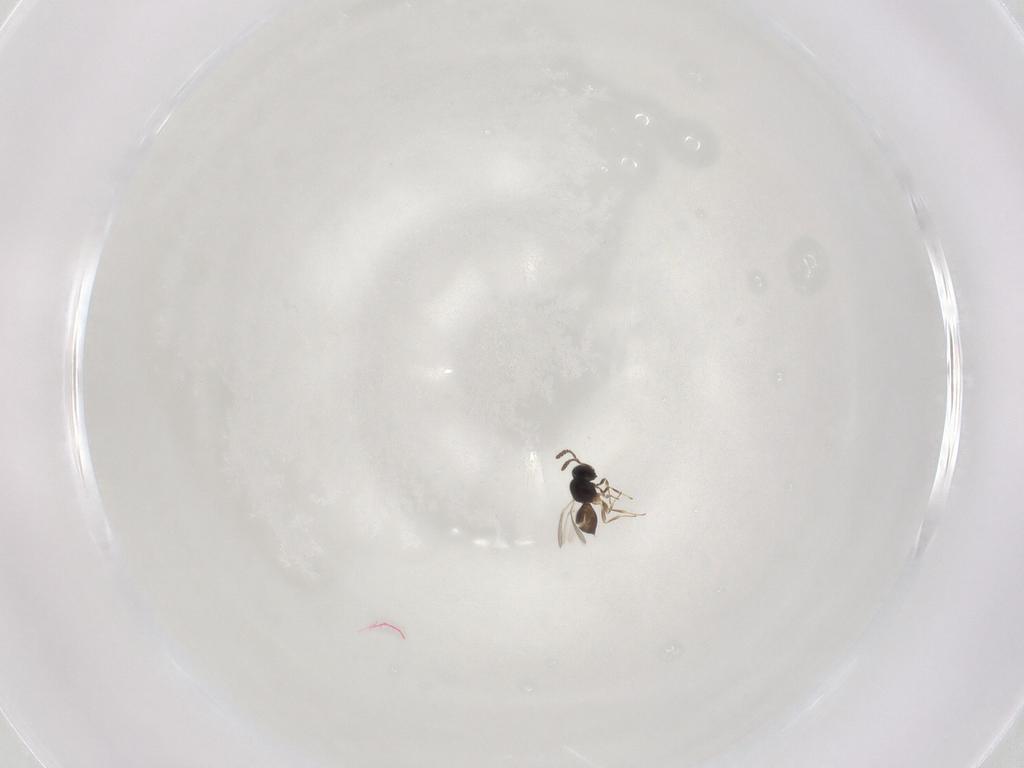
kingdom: Animalia
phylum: Arthropoda
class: Insecta
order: Hymenoptera
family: Scelionidae
